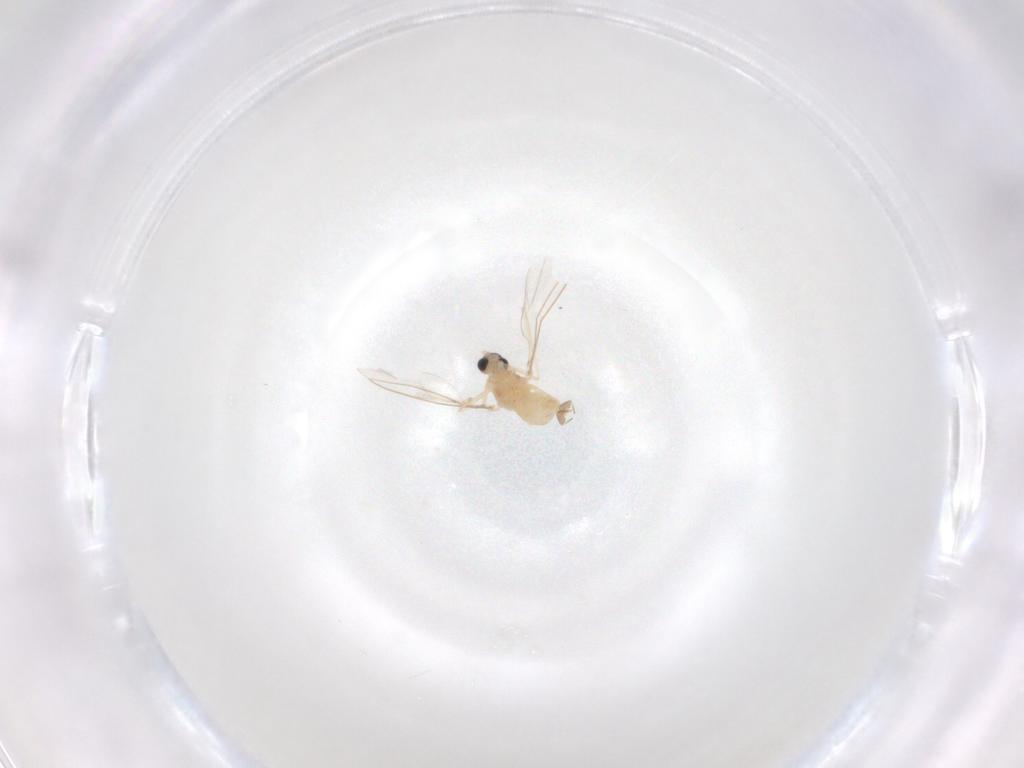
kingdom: Animalia
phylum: Arthropoda
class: Insecta
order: Diptera
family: Cecidomyiidae
